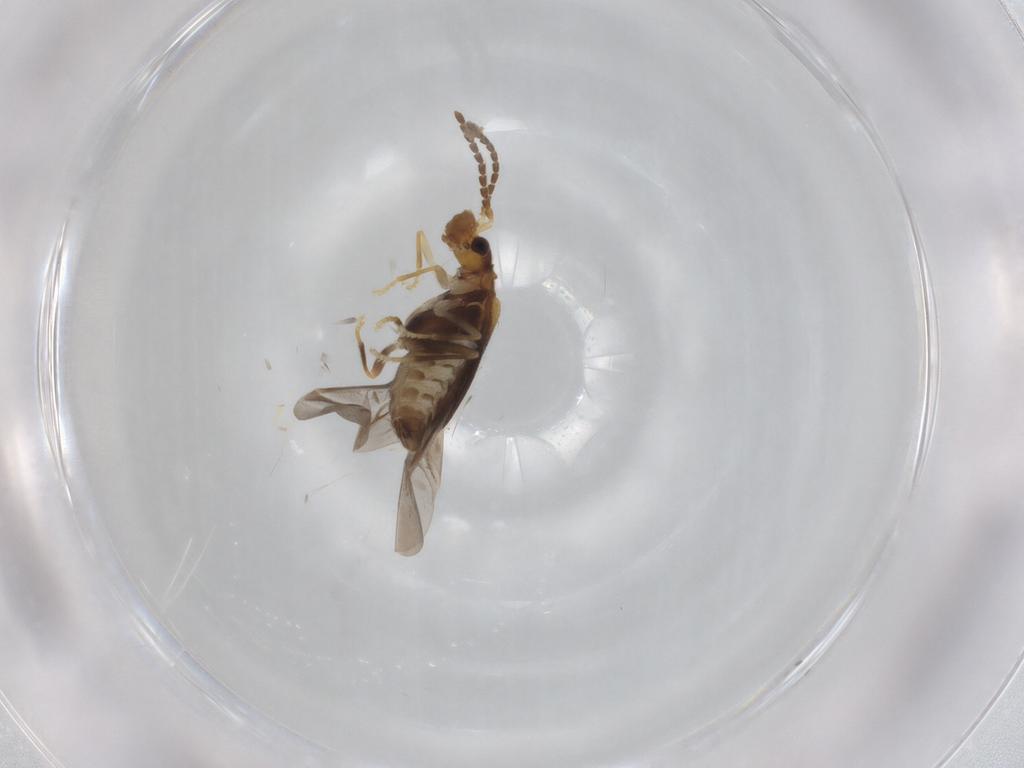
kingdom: Animalia
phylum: Arthropoda
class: Insecta
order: Coleoptera
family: Cantharidae
